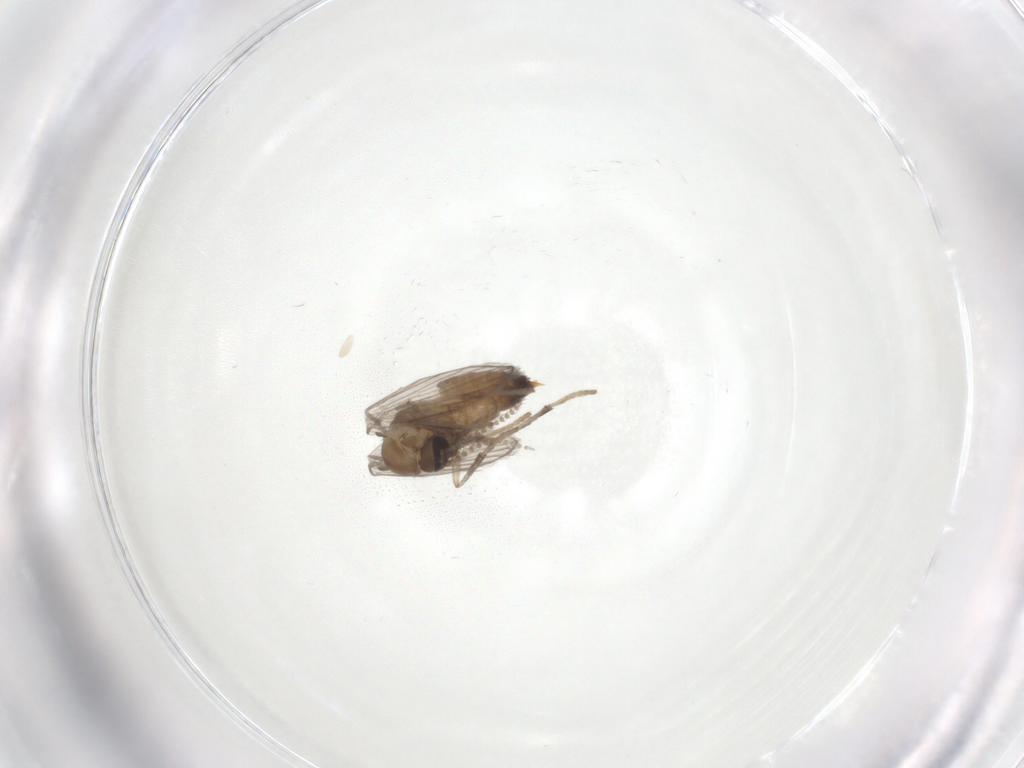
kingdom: Animalia
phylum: Arthropoda
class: Insecta
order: Diptera
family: Psychodidae
